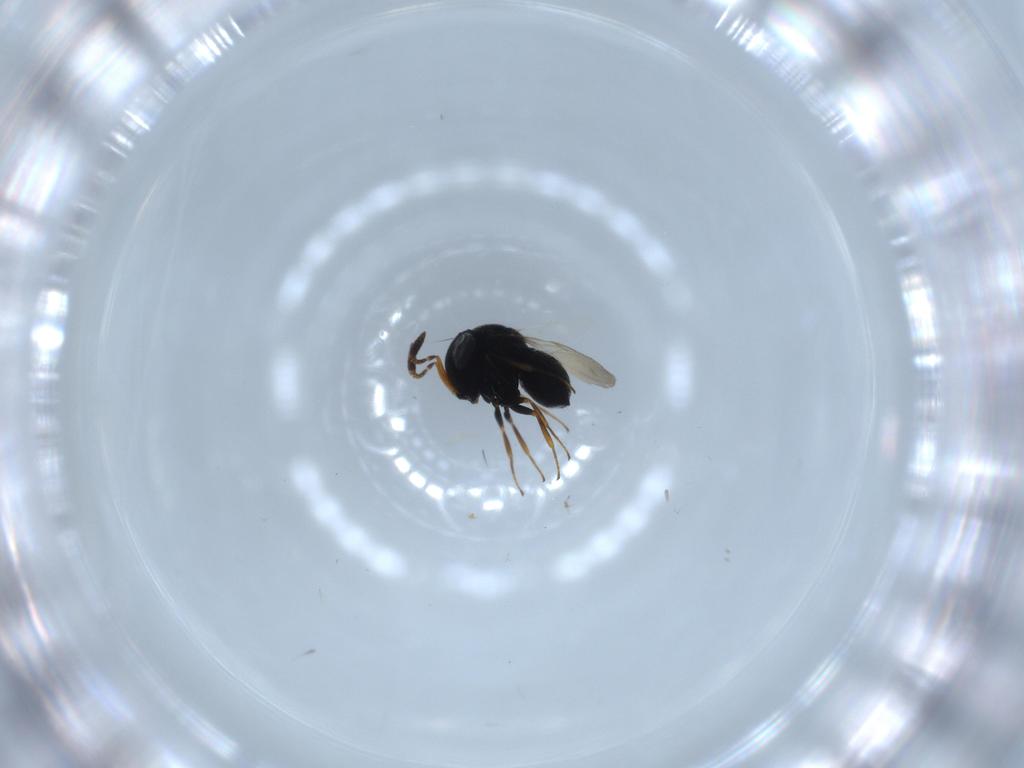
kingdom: Animalia
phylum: Arthropoda
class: Insecta
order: Hymenoptera
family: Scelionidae
